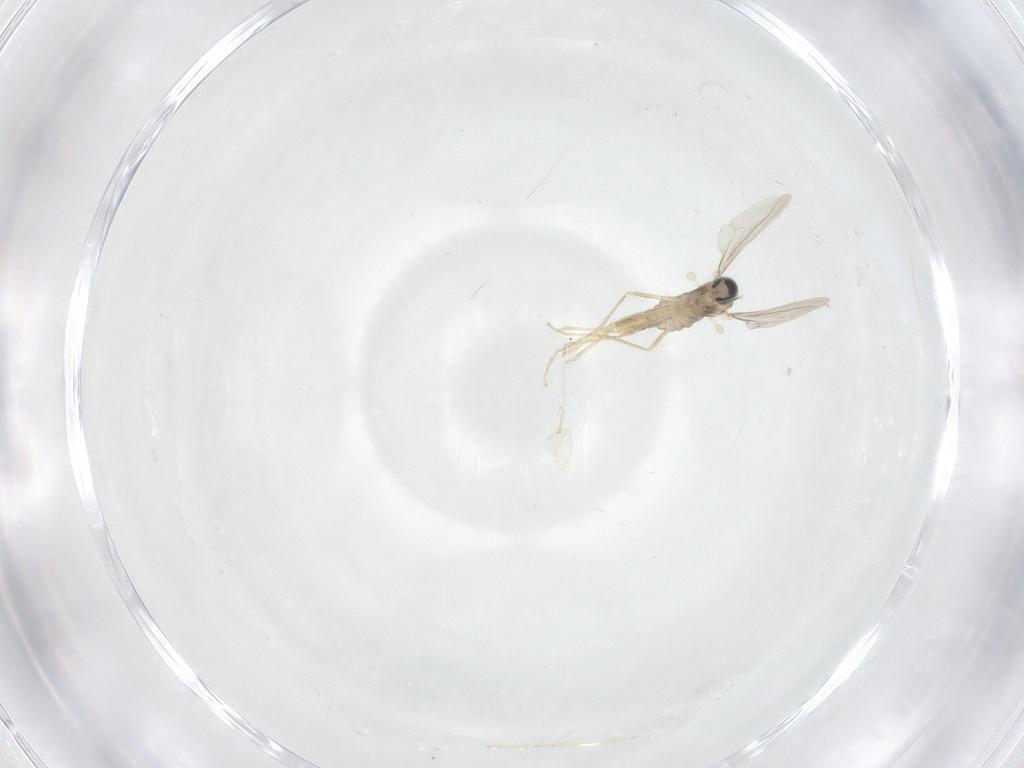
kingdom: Animalia
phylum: Arthropoda
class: Insecta
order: Diptera
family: Cecidomyiidae
